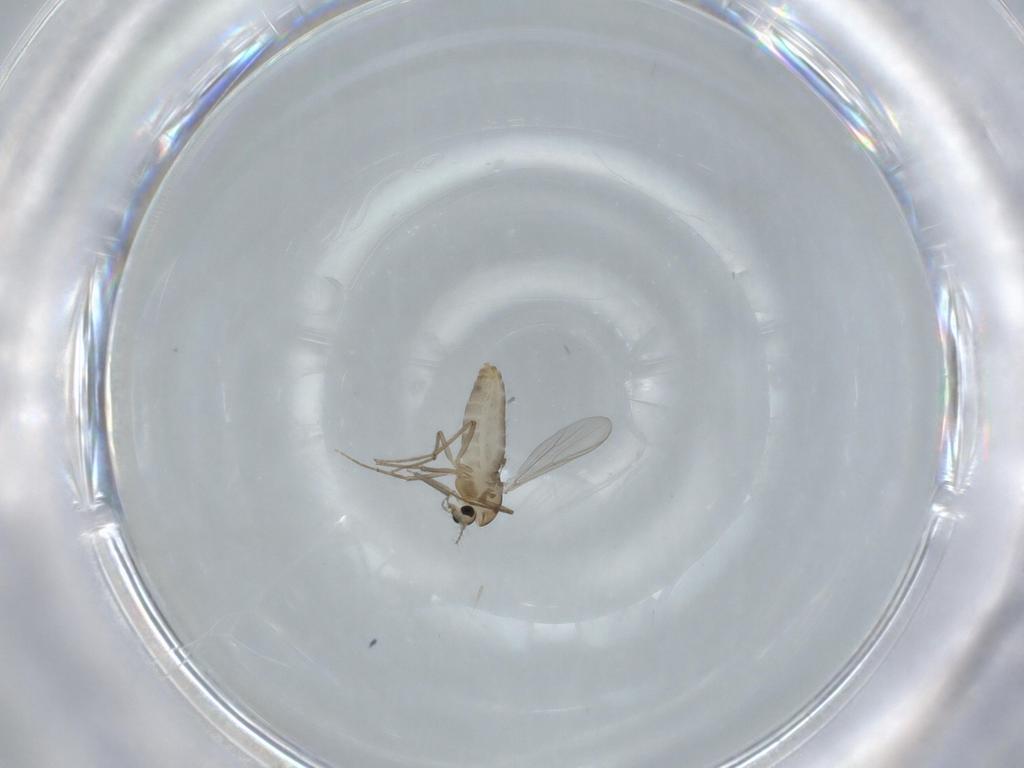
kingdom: Animalia
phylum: Arthropoda
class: Insecta
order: Diptera
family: Chironomidae
